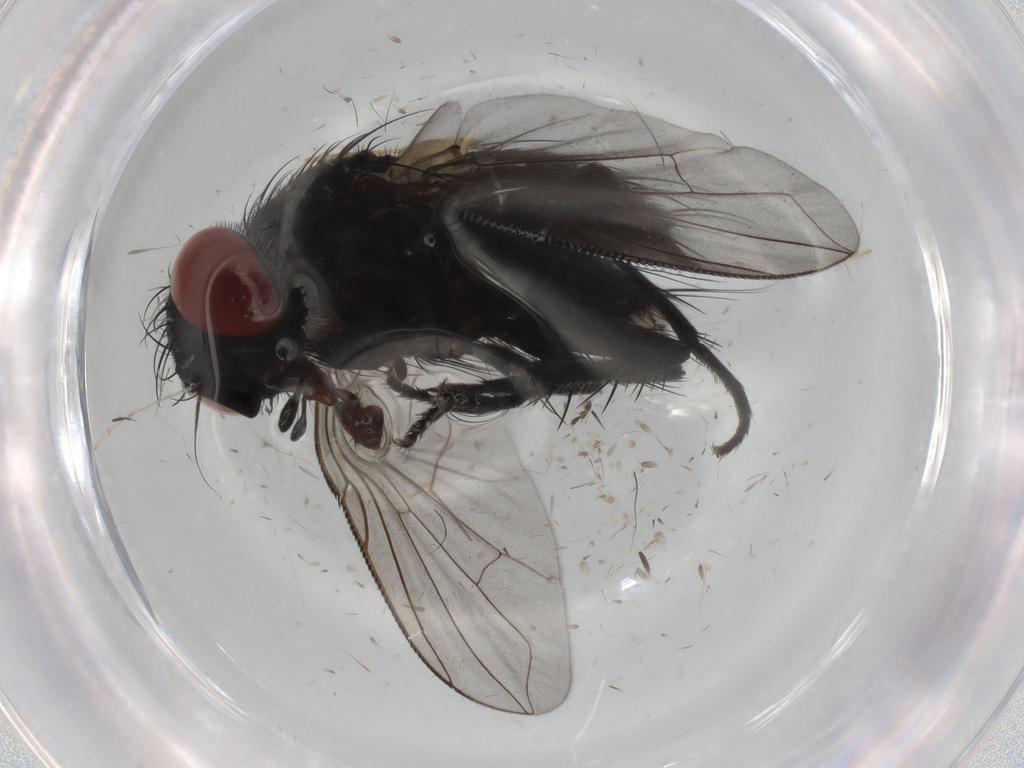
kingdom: Animalia
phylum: Arthropoda
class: Insecta
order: Diptera
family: Tachinidae
